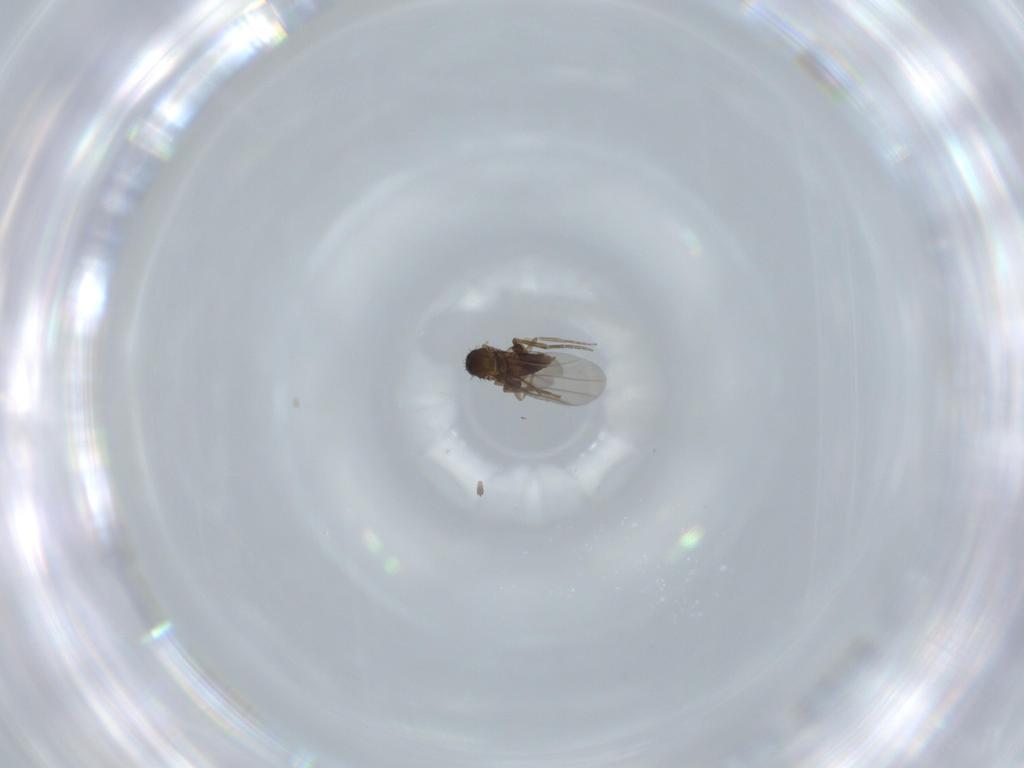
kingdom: Animalia
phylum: Arthropoda
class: Insecta
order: Diptera
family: Phoridae
